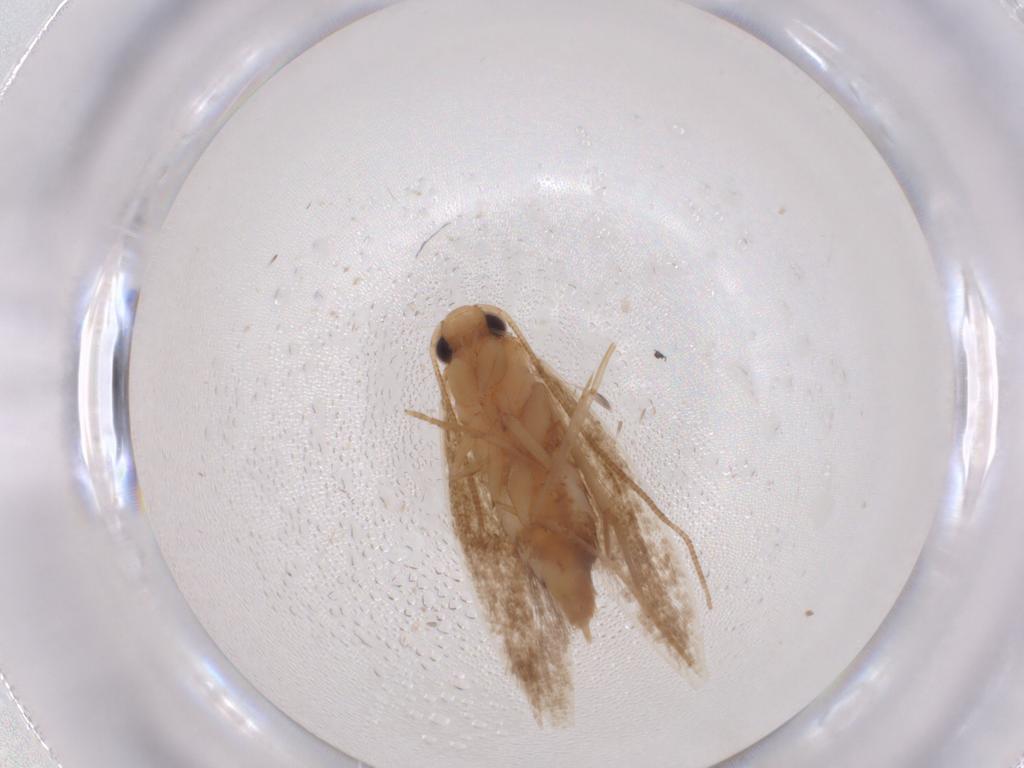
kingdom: Animalia
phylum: Arthropoda
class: Insecta
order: Lepidoptera
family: Tineidae
